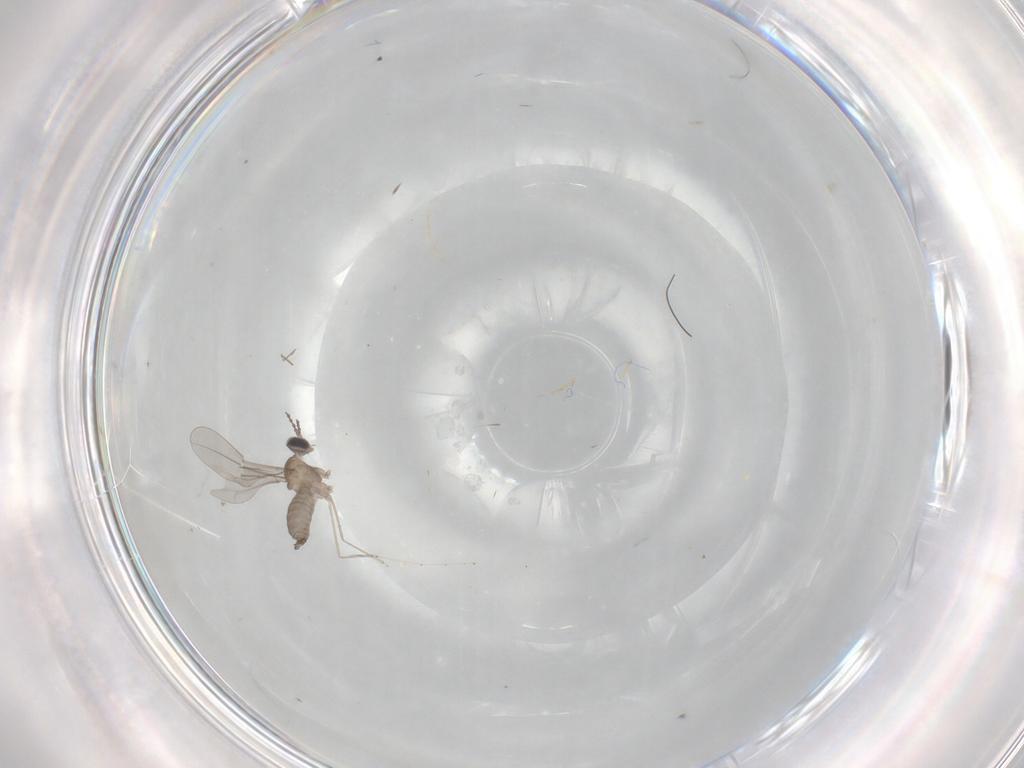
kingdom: Animalia
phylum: Arthropoda
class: Insecta
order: Diptera
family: Cecidomyiidae
